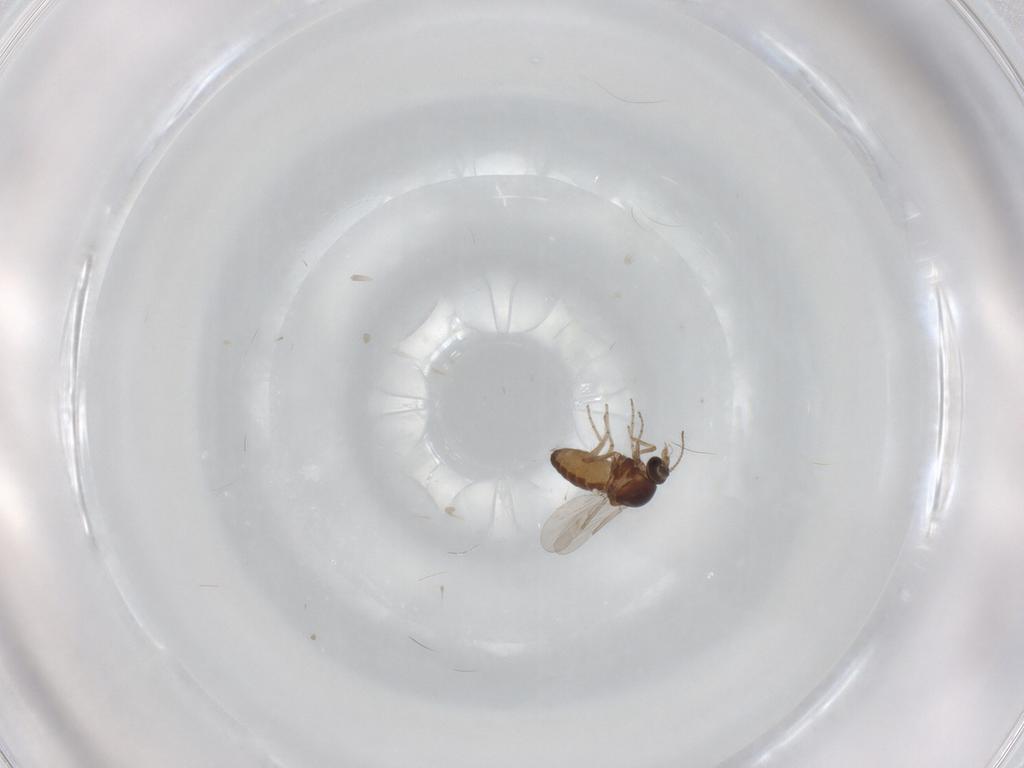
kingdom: Animalia
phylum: Arthropoda
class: Insecta
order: Diptera
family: Ceratopogonidae
